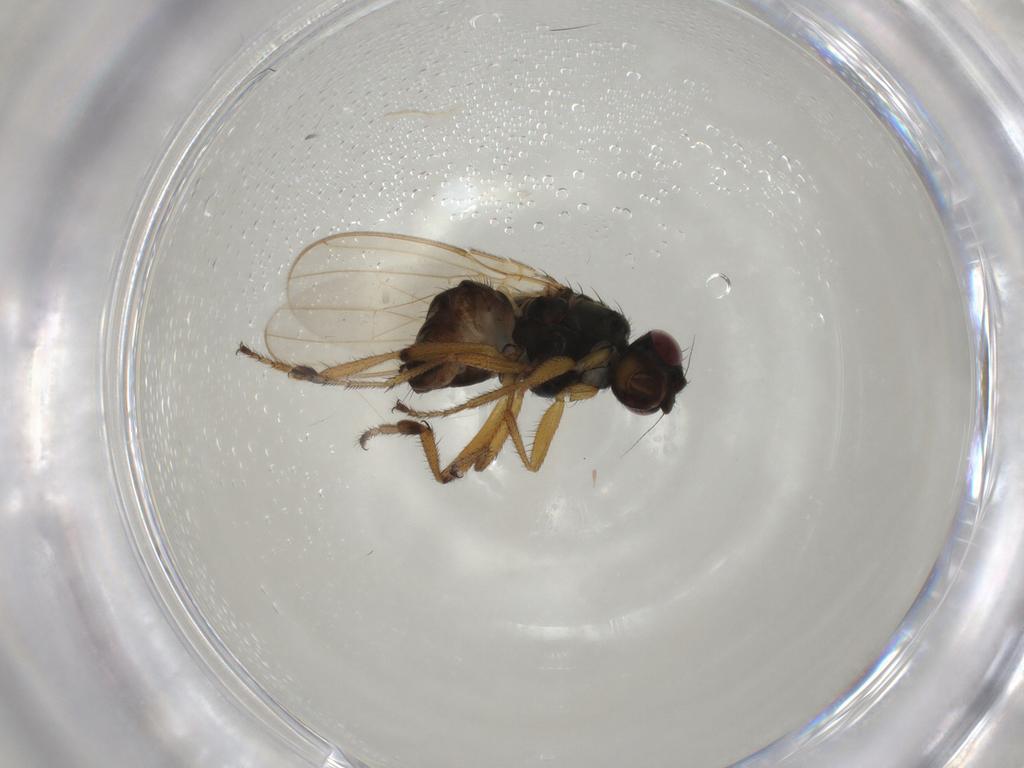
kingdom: Animalia
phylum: Arthropoda
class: Insecta
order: Diptera
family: Sphaeroceridae
